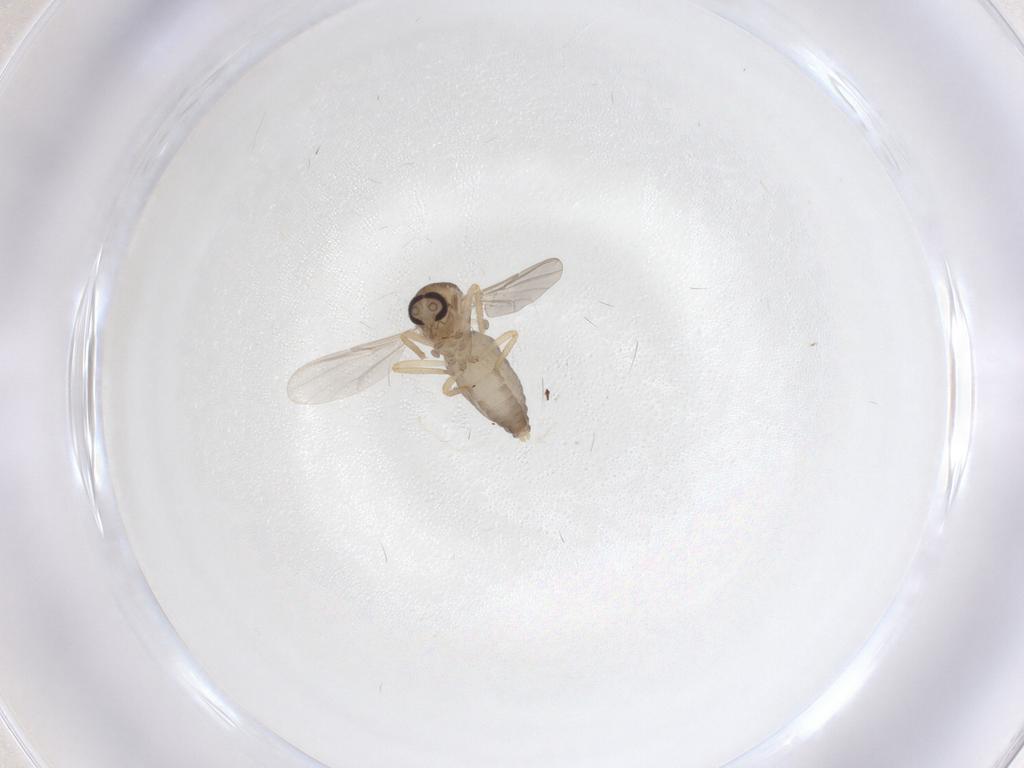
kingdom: Animalia
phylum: Arthropoda
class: Insecta
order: Diptera
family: Ceratopogonidae
